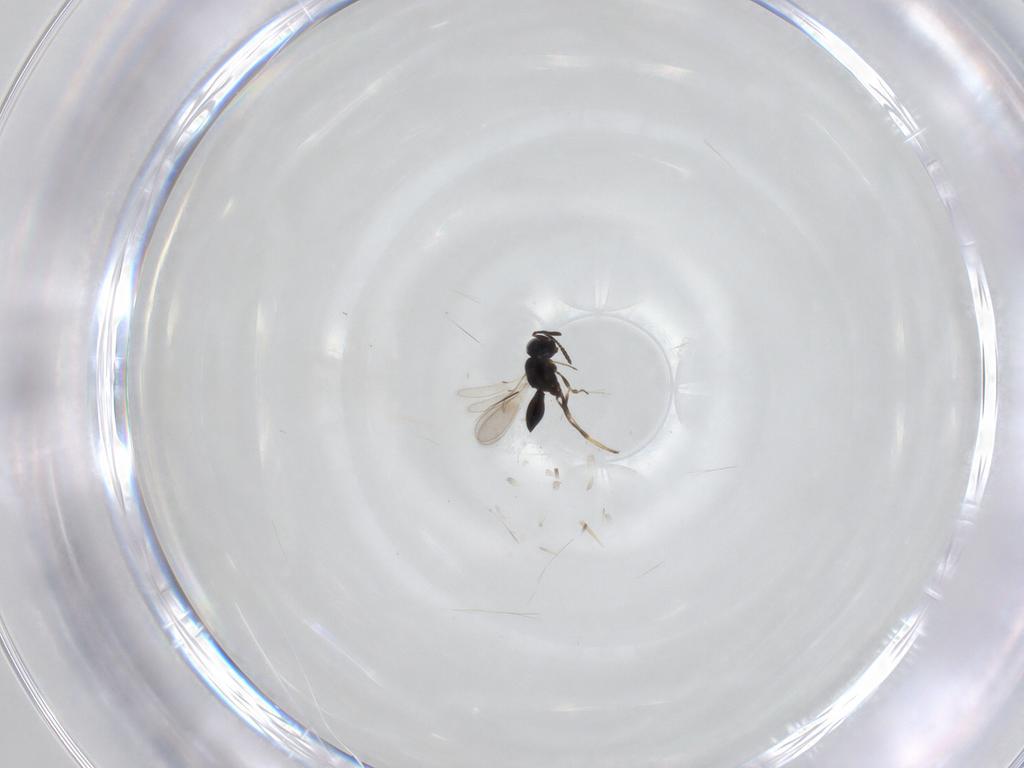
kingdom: Animalia
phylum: Arthropoda
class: Insecta
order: Hymenoptera
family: Scelionidae
